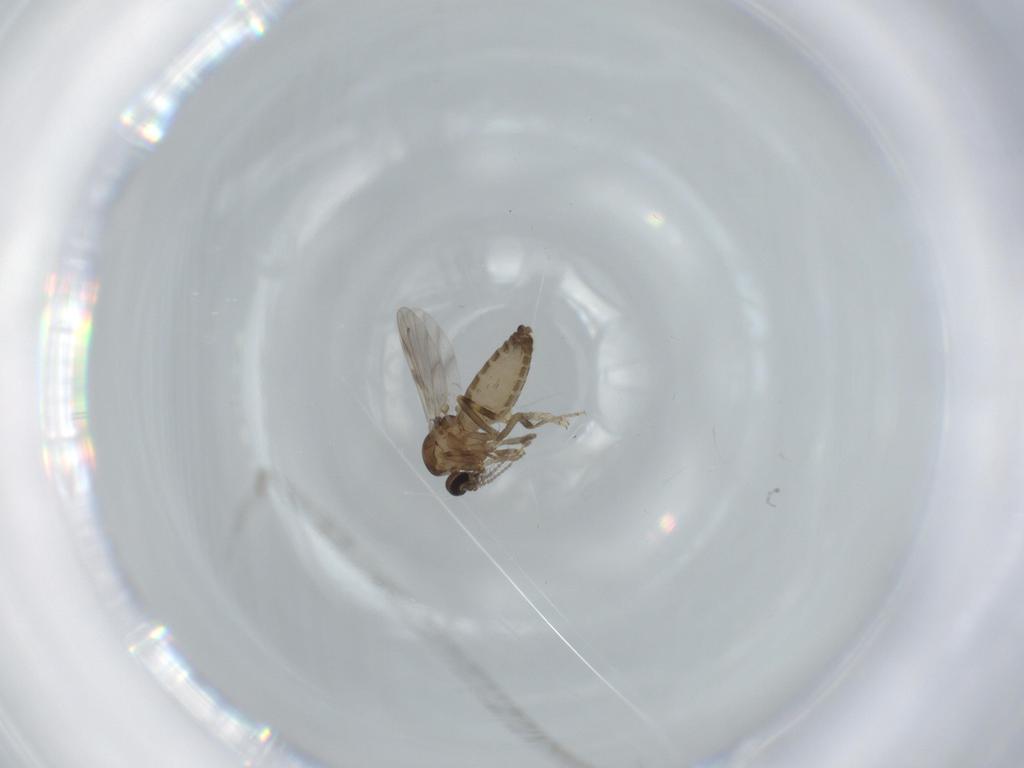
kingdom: Animalia
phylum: Arthropoda
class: Insecta
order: Diptera
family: Ceratopogonidae
